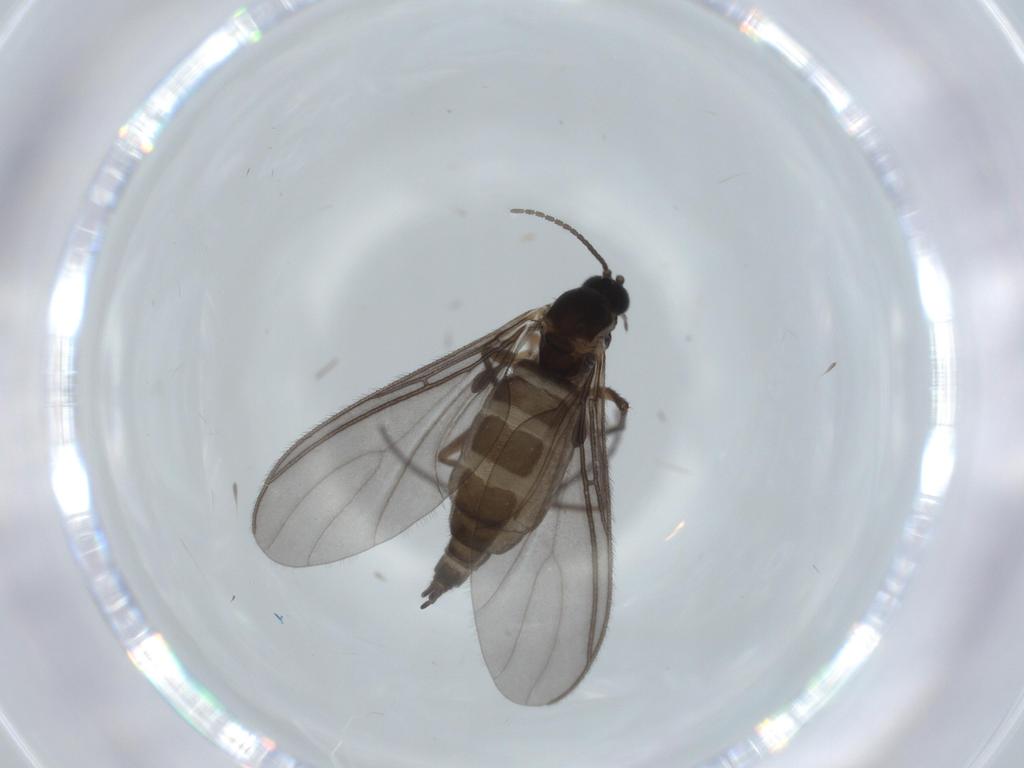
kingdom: Animalia
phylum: Arthropoda
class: Insecta
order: Diptera
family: Sciaridae
